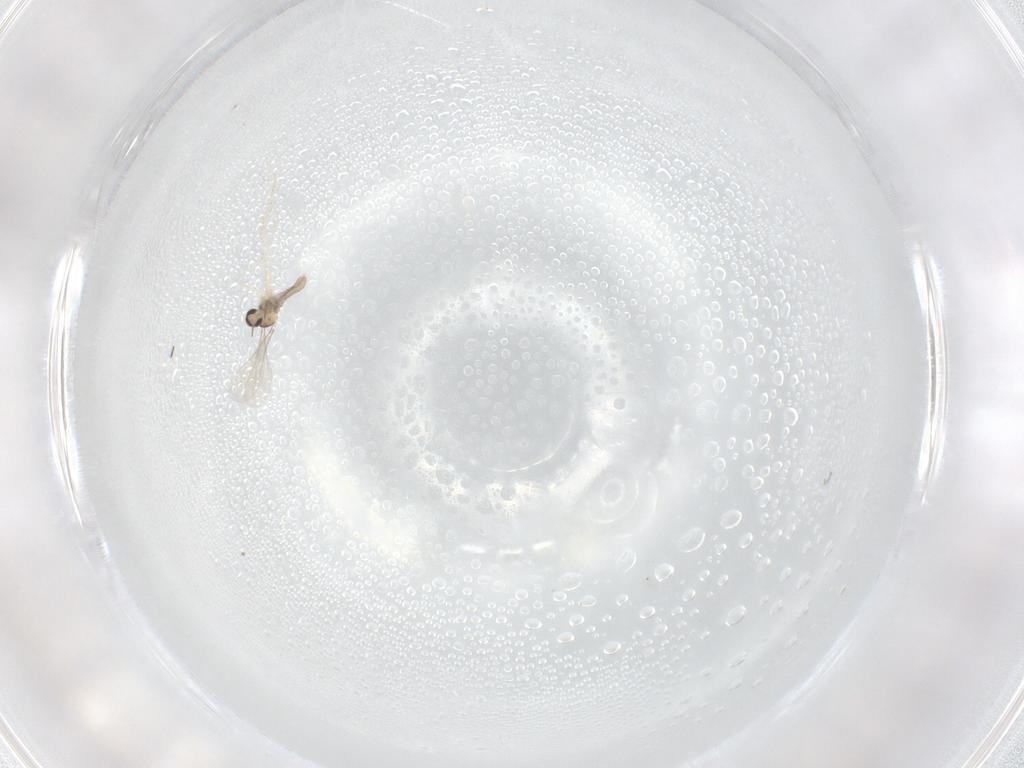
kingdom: Animalia
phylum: Arthropoda
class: Insecta
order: Diptera
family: Cecidomyiidae
